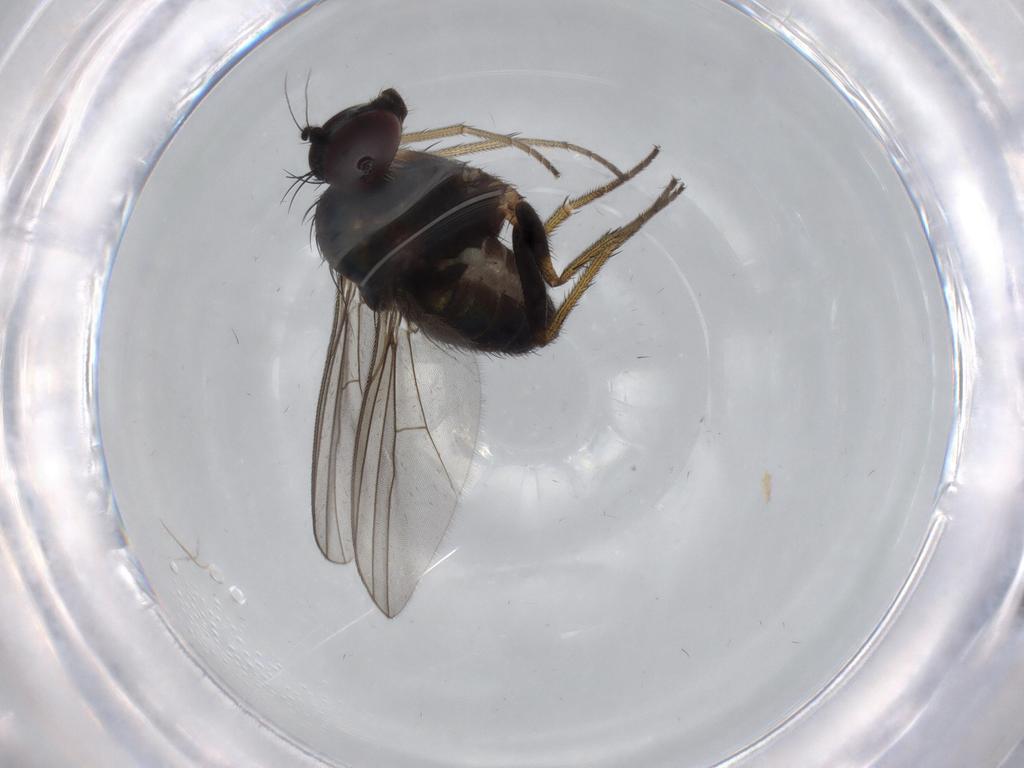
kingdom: Animalia
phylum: Arthropoda
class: Insecta
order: Diptera
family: Dolichopodidae
